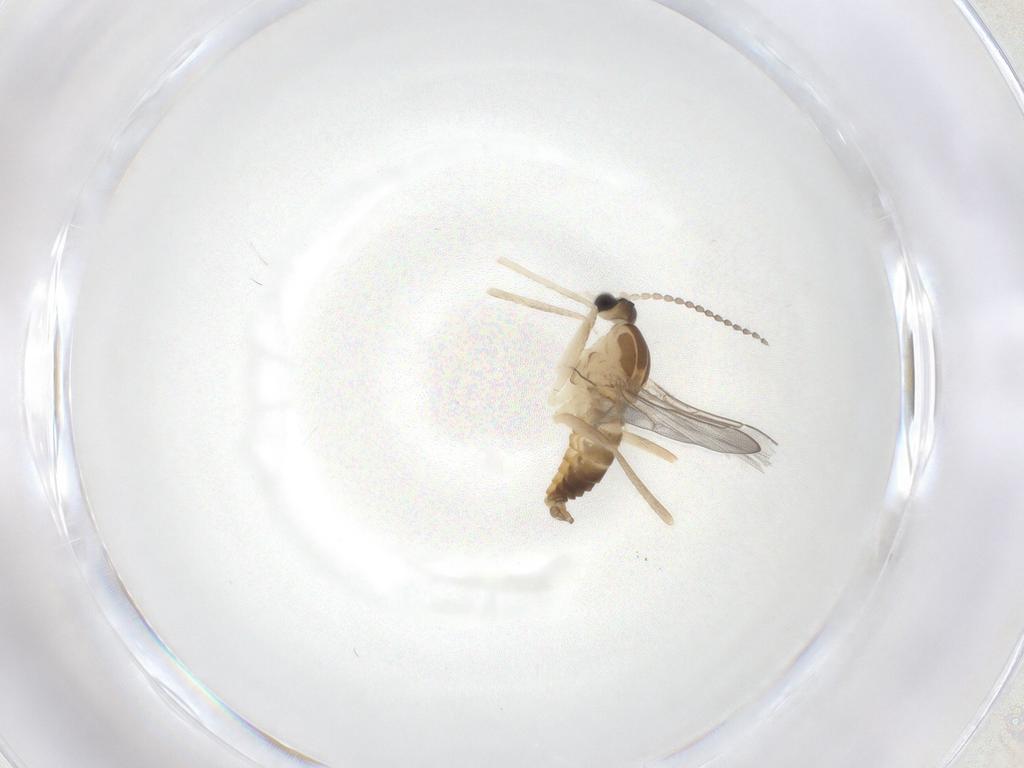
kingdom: Animalia
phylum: Arthropoda
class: Insecta
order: Diptera
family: Cecidomyiidae
